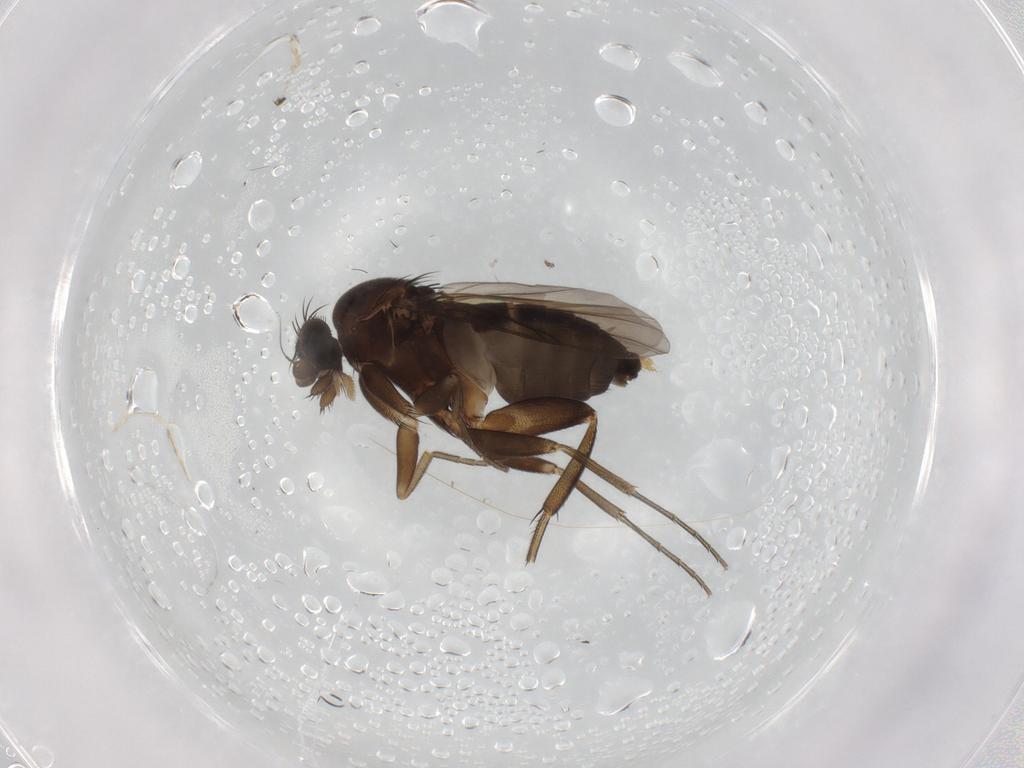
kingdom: Animalia
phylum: Arthropoda
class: Insecta
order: Diptera
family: Phoridae
